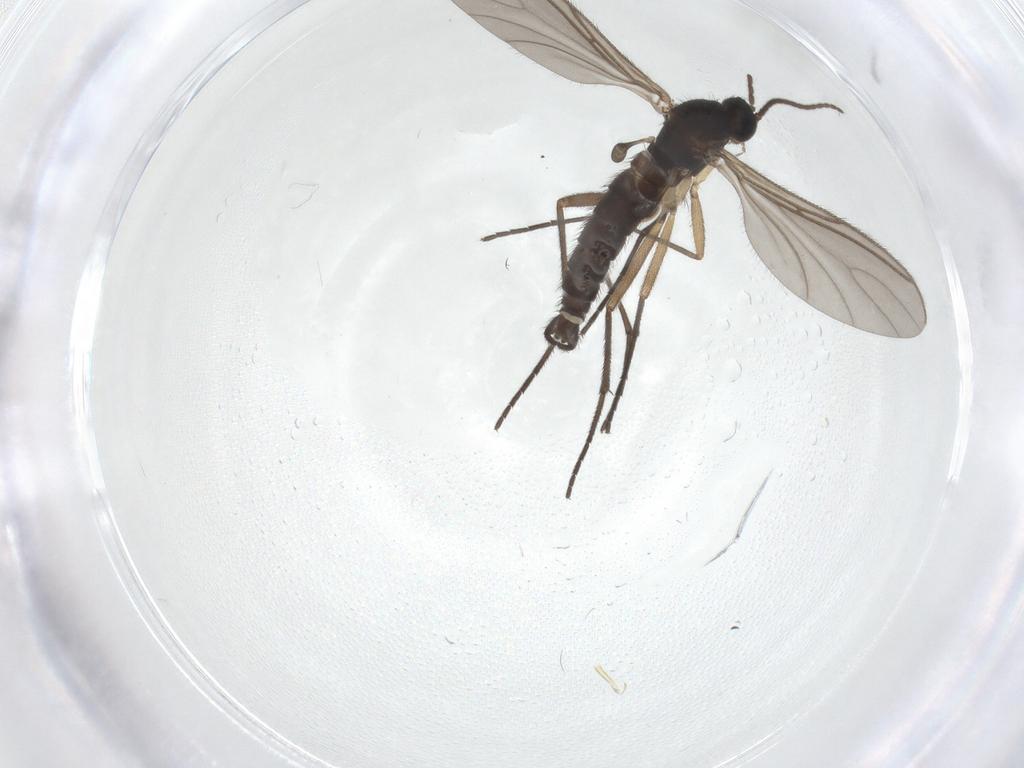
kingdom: Animalia
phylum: Arthropoda
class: Insecta
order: Diptera
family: Sciaridae
